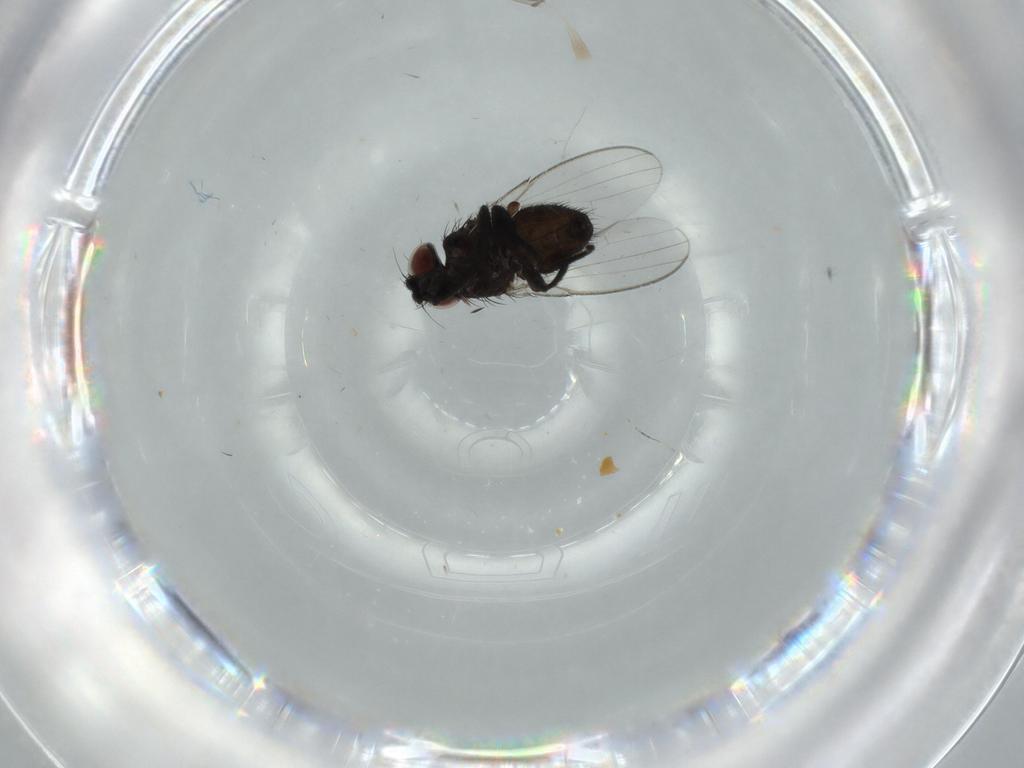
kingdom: Animalia
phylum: Arthropoda
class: Insecta
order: Diptera
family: Milichiidae
